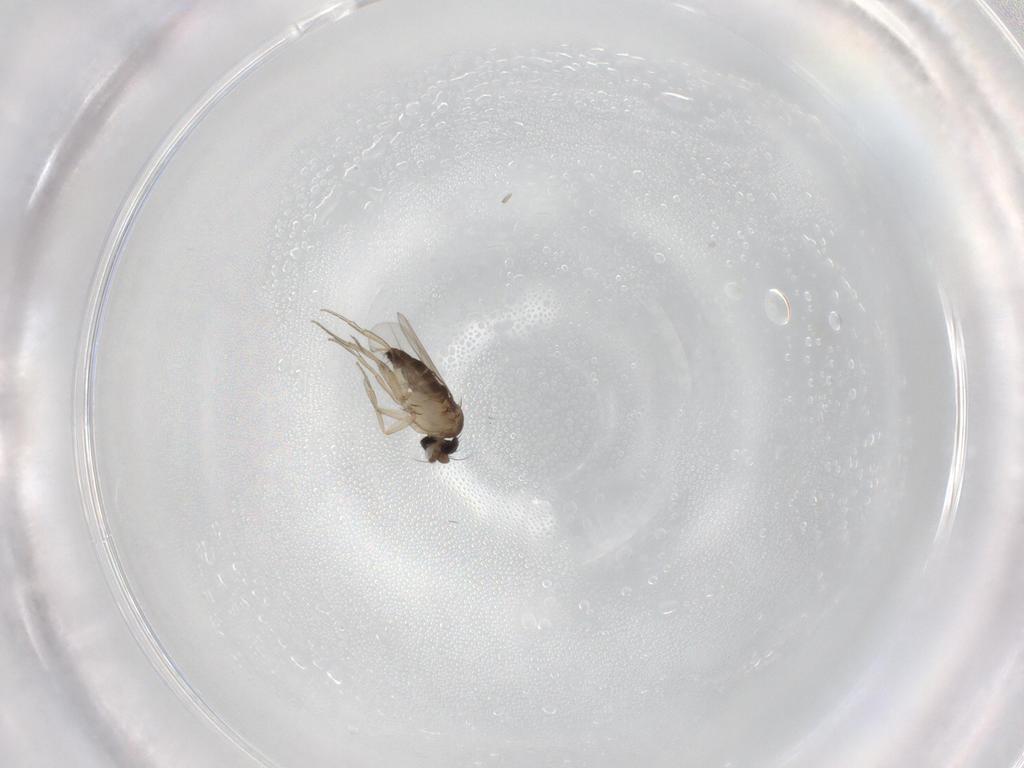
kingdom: Animalia
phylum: Arthropoda
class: Insecta
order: Diptera
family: Phoridae
